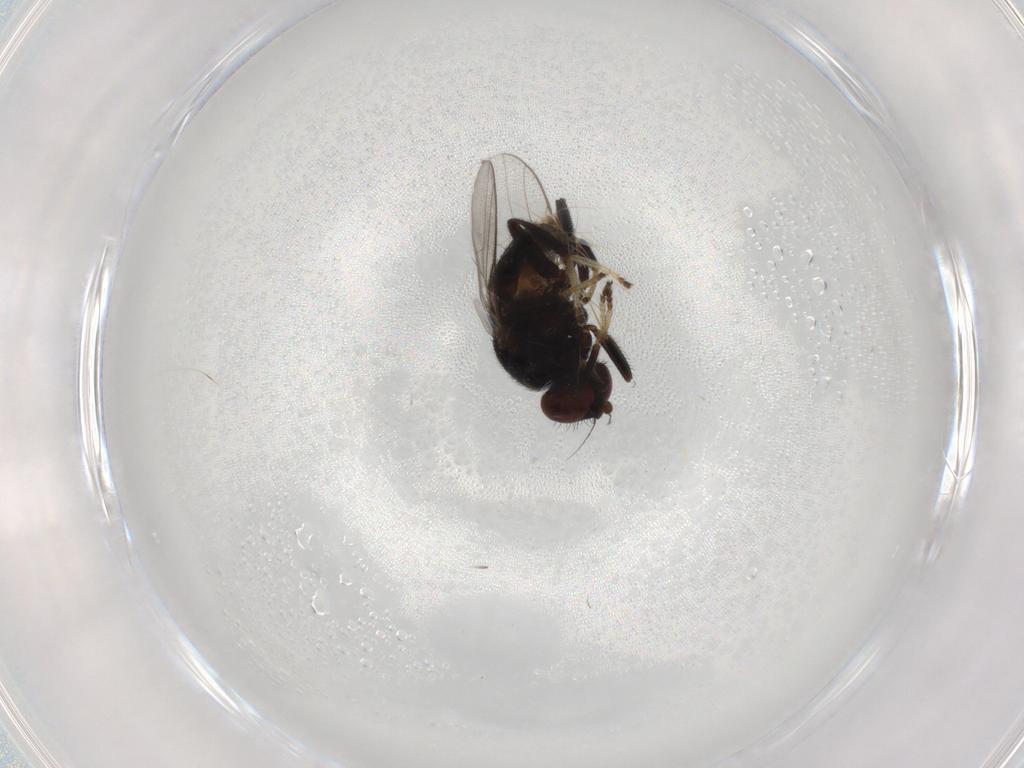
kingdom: Animalia
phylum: Arthropoda
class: Insecta
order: Diptera
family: Chloropidae
